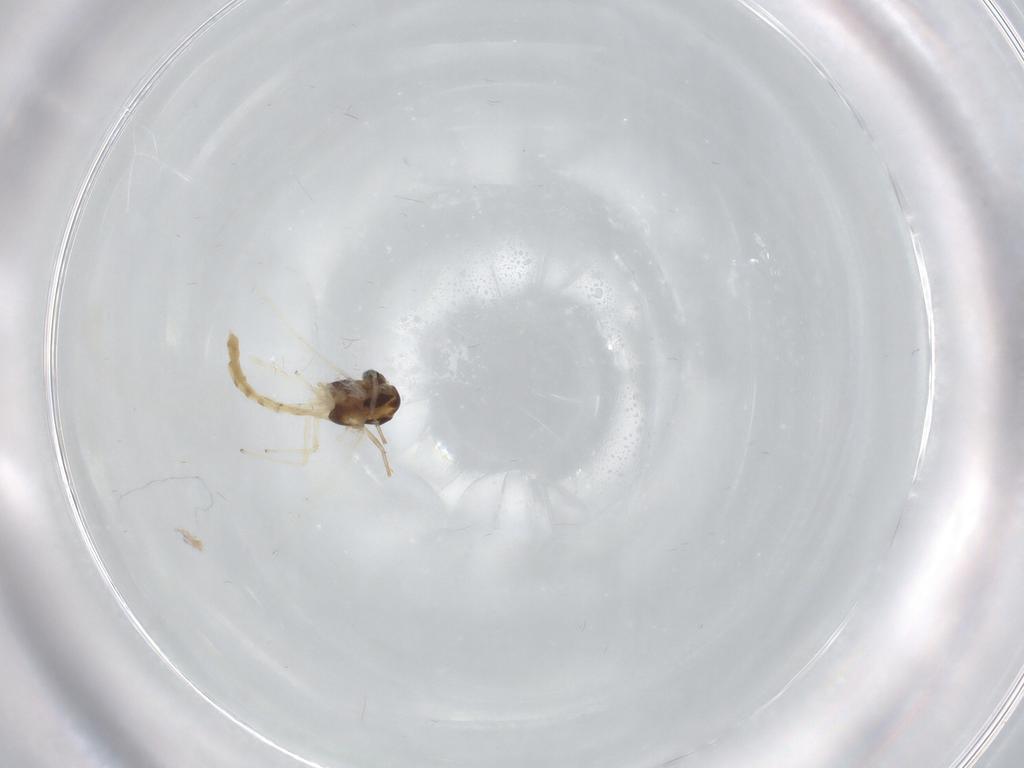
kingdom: Animalia
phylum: Arthropoda
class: Insecta
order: Diptera
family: Chironomidae
